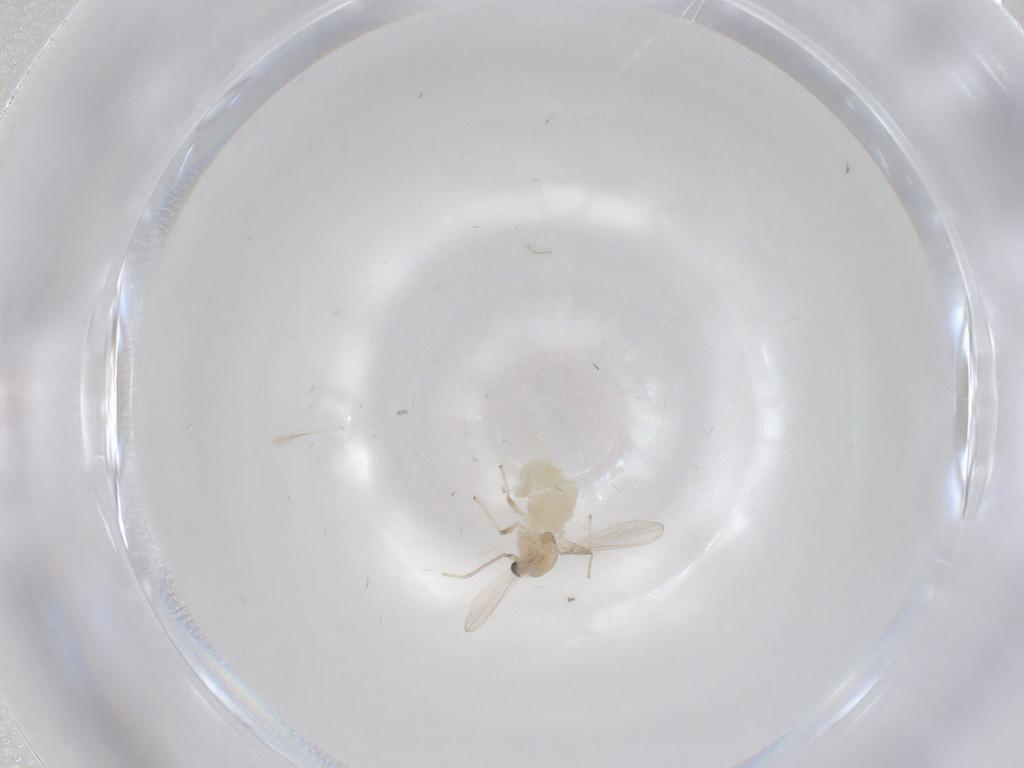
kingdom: Animalia
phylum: Arthropoda
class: Insecta
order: Diptera
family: Chironomidae
